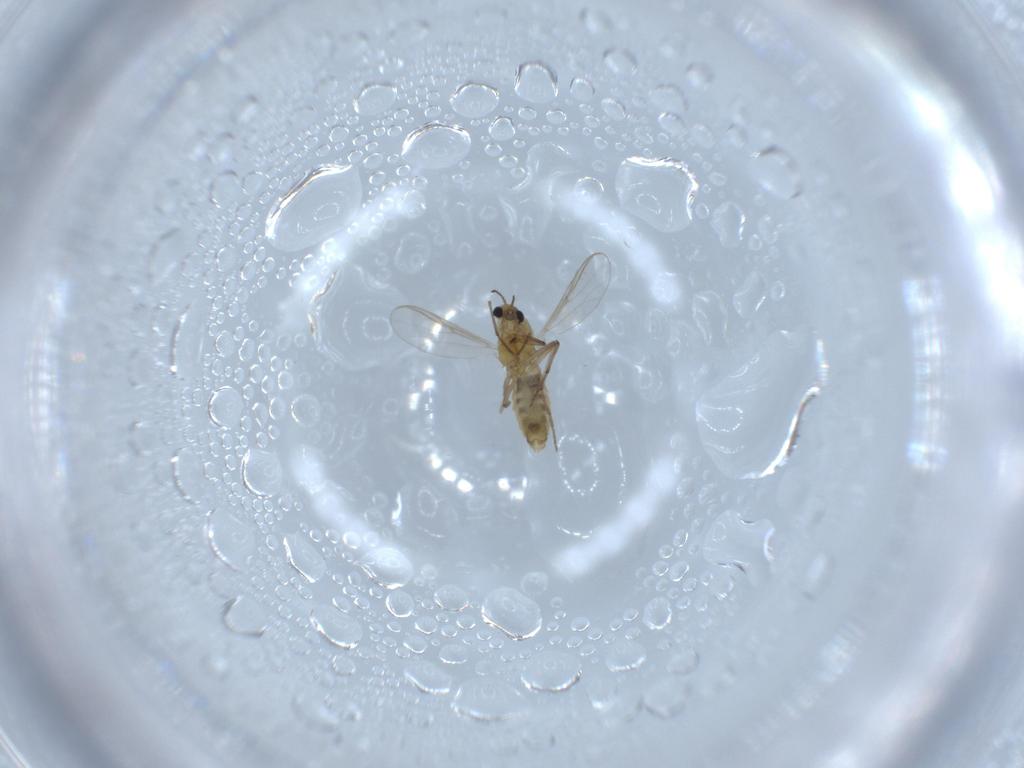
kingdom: Animalia
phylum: Arthropoda
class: Insecta
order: Diptera
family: Chironomidae
